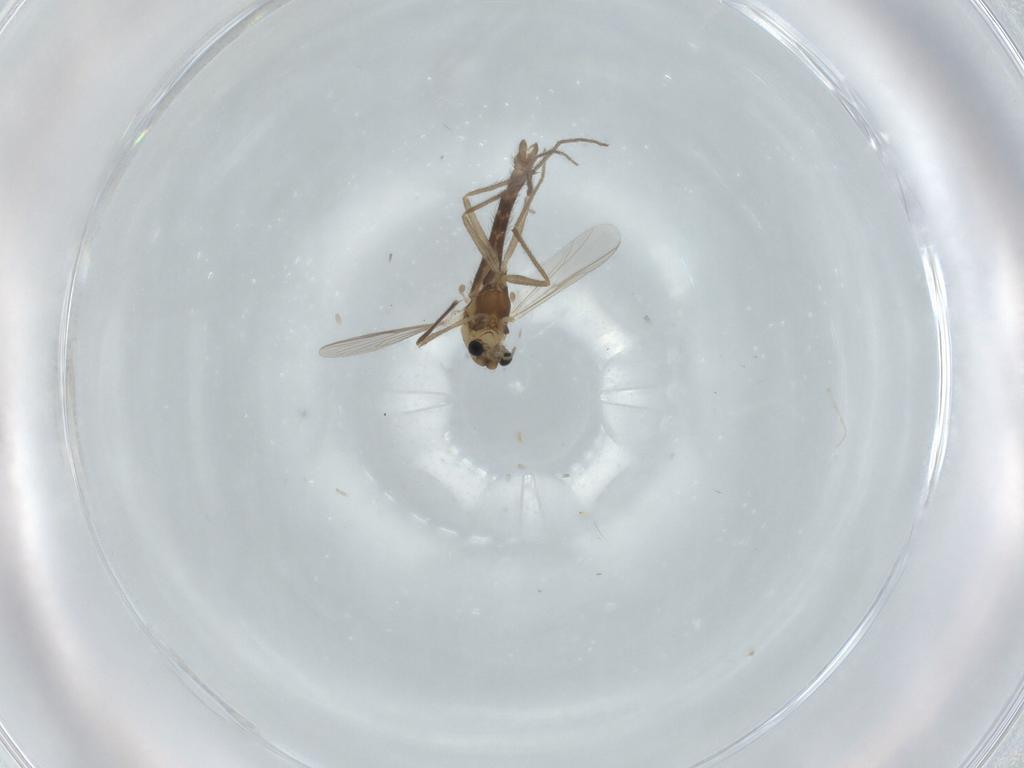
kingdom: Animalia
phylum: Arthropoda
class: Insecta
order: Diptera
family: Chironomidae
